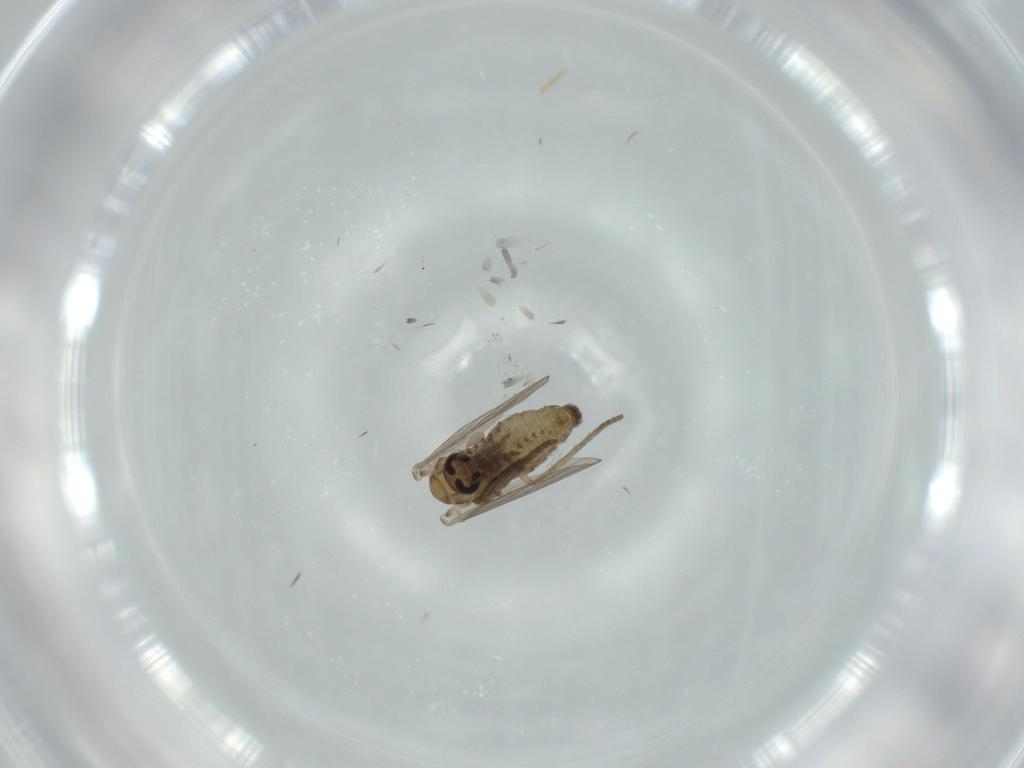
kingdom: Animalia
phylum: Arthropoda
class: Insecta
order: Diptera
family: Psychodidae
